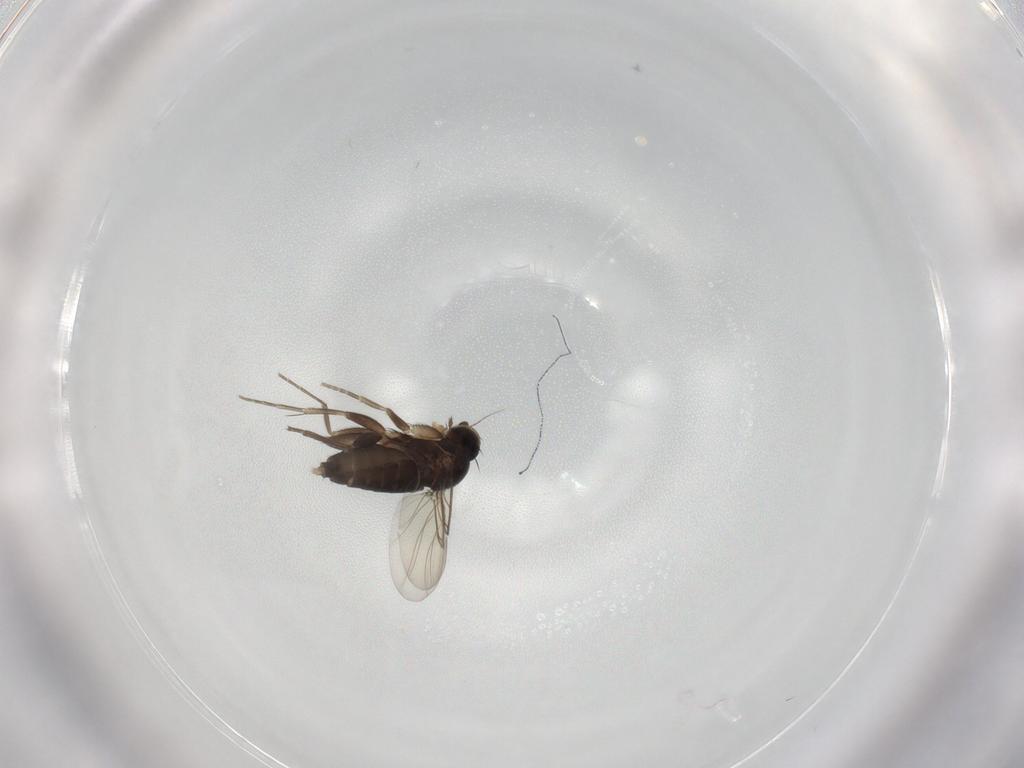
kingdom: Animalia
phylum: Arthropoda
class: Insecta
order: Diptera
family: Phoridae
